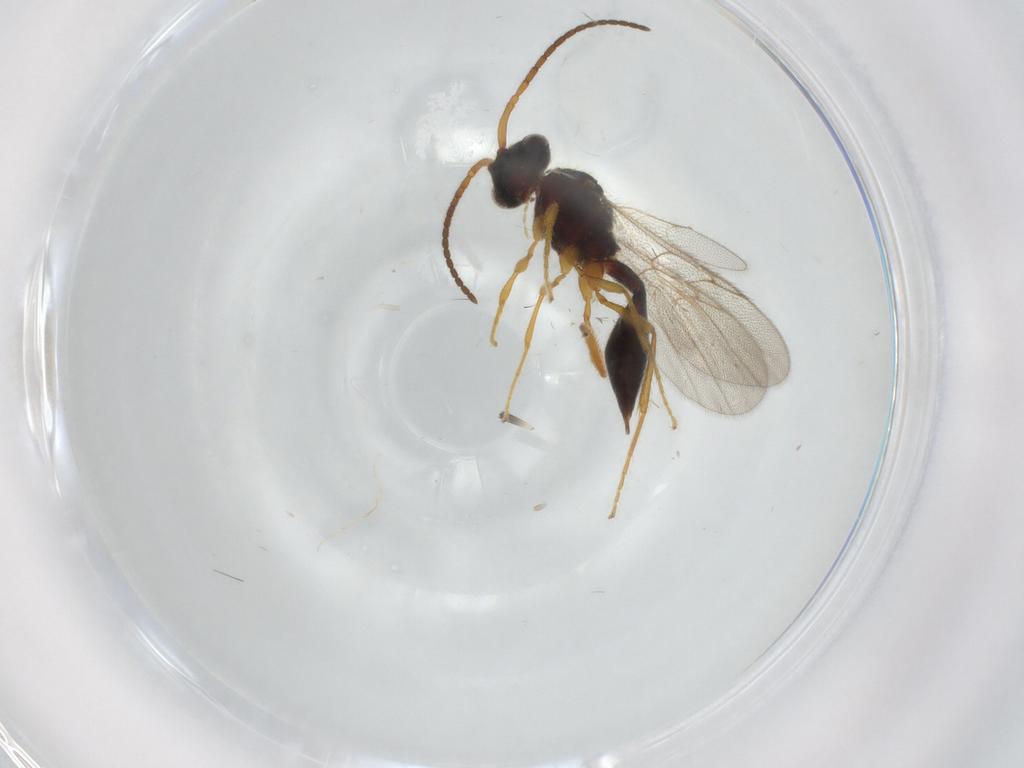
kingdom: Animalia
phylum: Arthropoda
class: Insecta
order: Hymenoptera
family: Diapriidae
